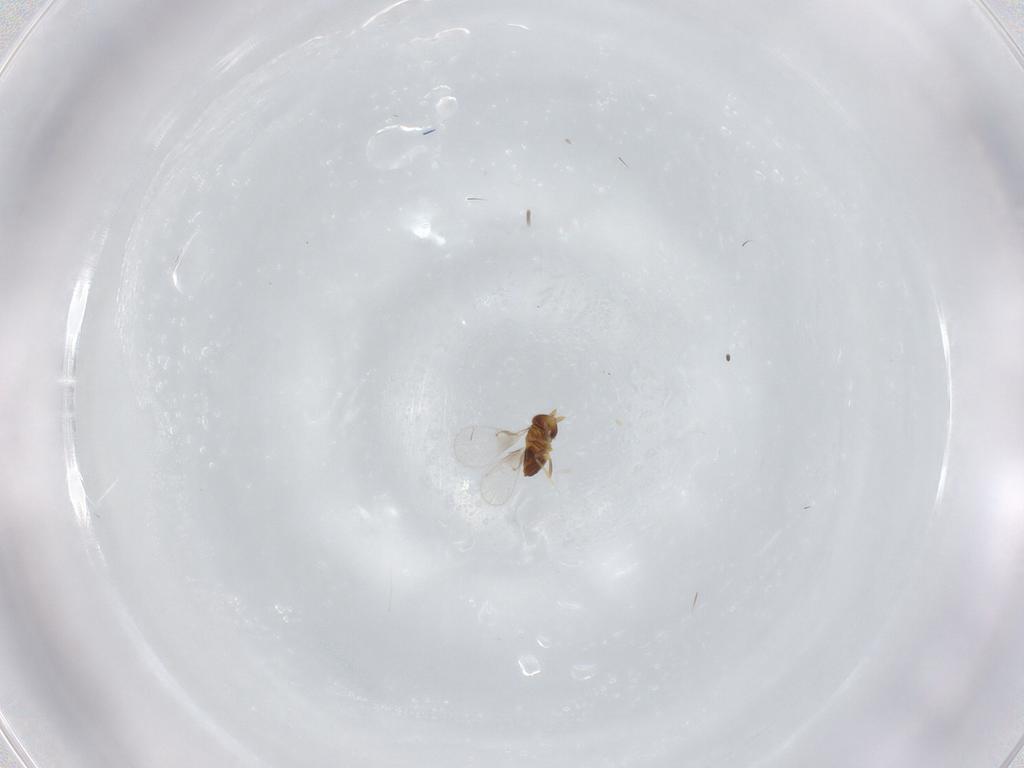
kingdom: Animalia
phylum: Arthropoda
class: Insecta
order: Hymenoptera
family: Trichogrammatidae
